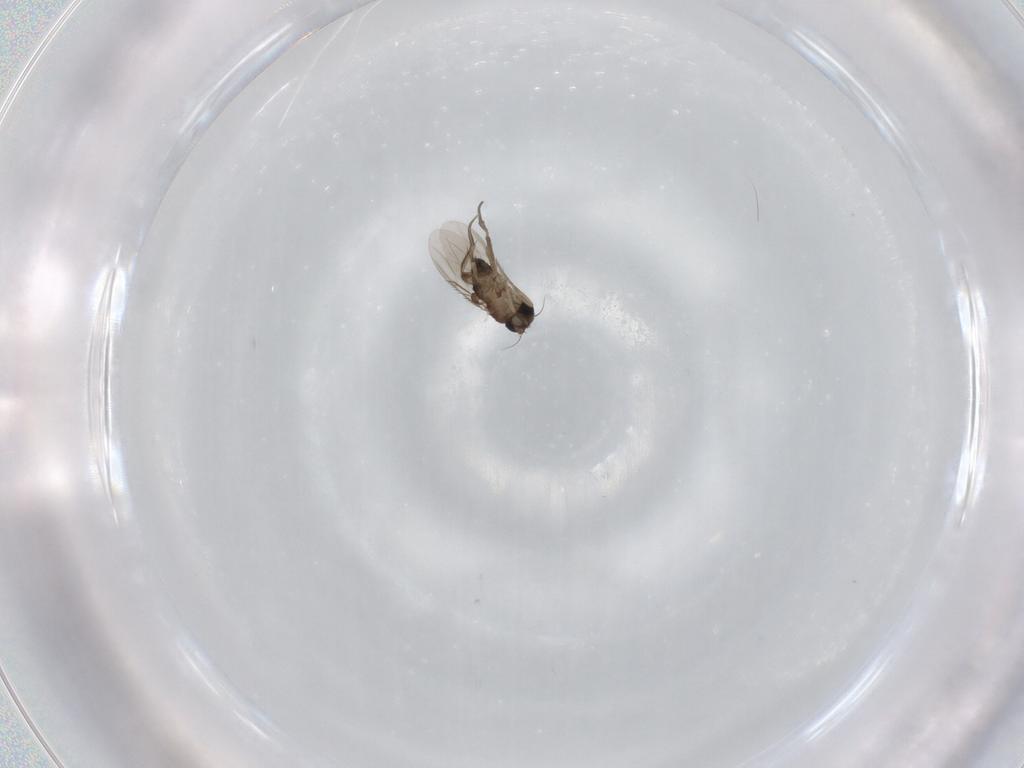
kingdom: Animalia
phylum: Arthropoda
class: Insecta
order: Diptera
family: Phoridae
